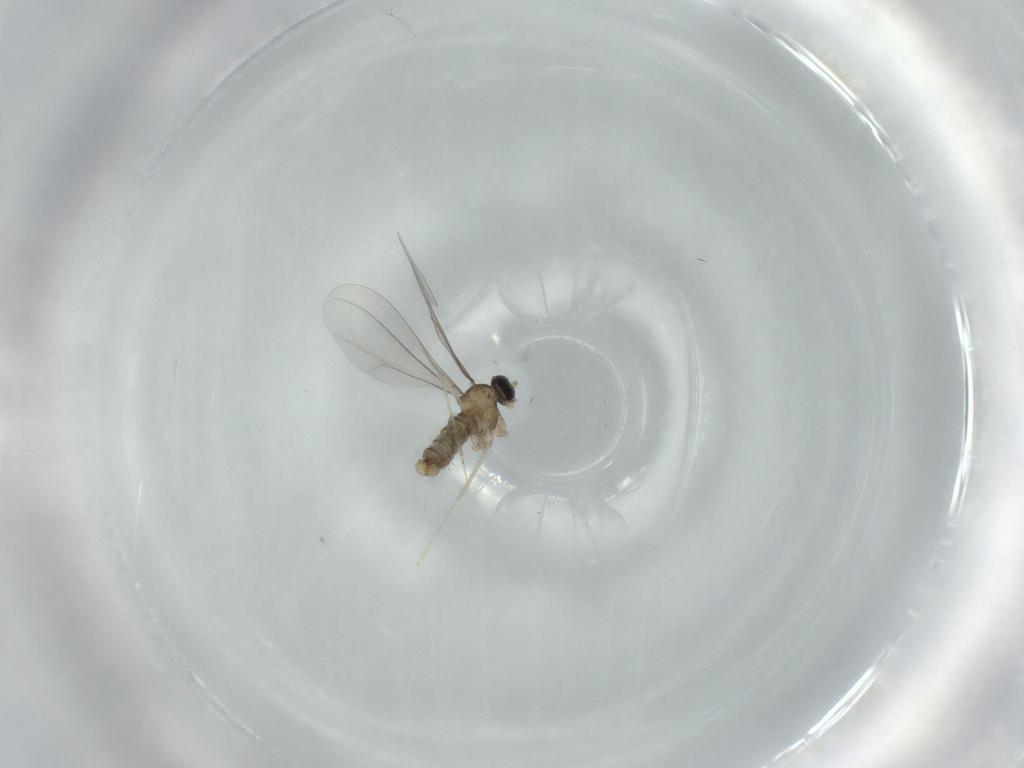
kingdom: Animalia
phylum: Arthropoda
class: Insecta
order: Diptera
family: Cecidomyiidae
